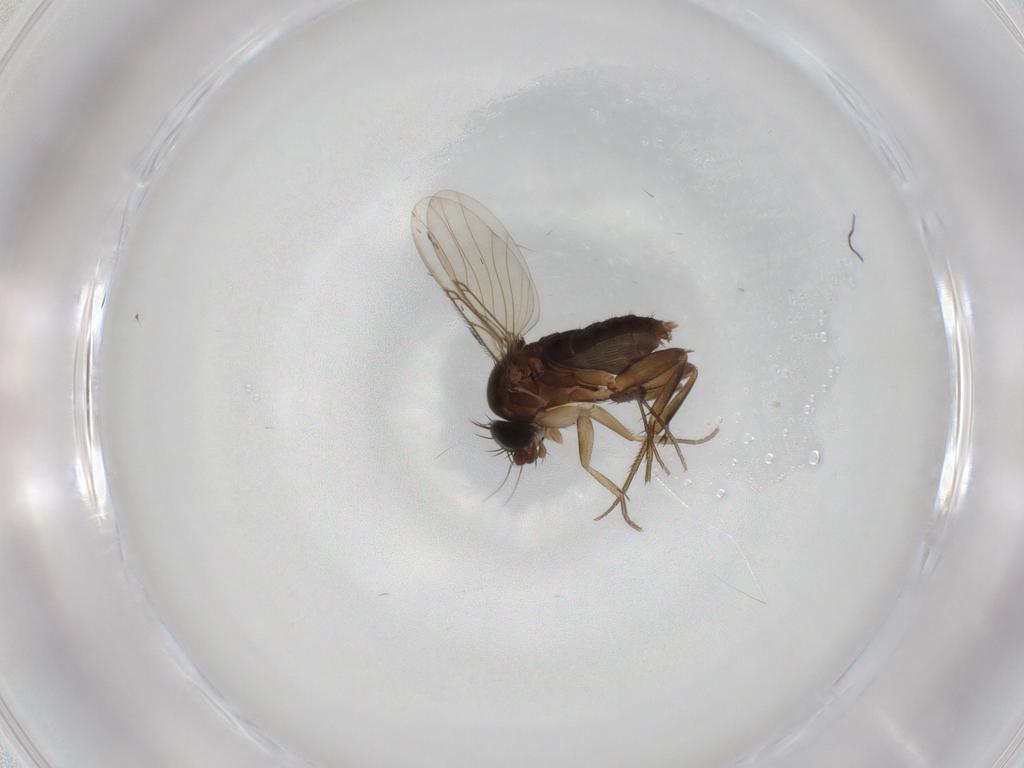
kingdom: Animalia
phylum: Arthropoda
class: Insecta
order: Diptera
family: Phoridae
